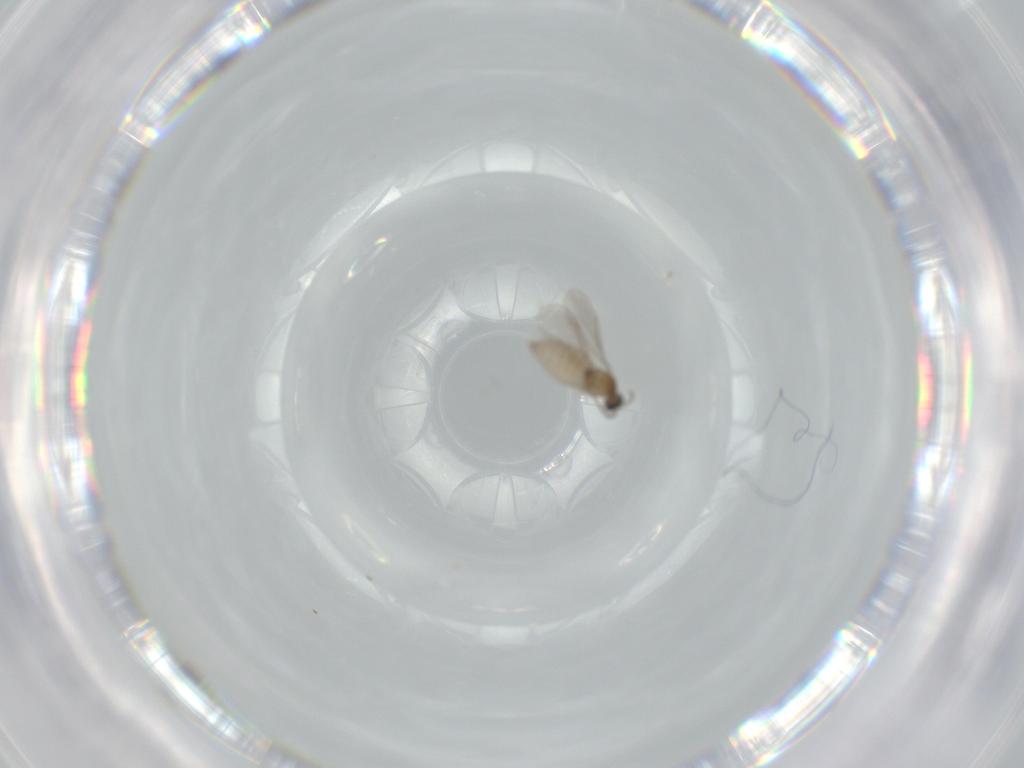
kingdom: Animalia
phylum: Arthropoda
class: Insecta
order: Diptera
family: Cecidomyiidae
